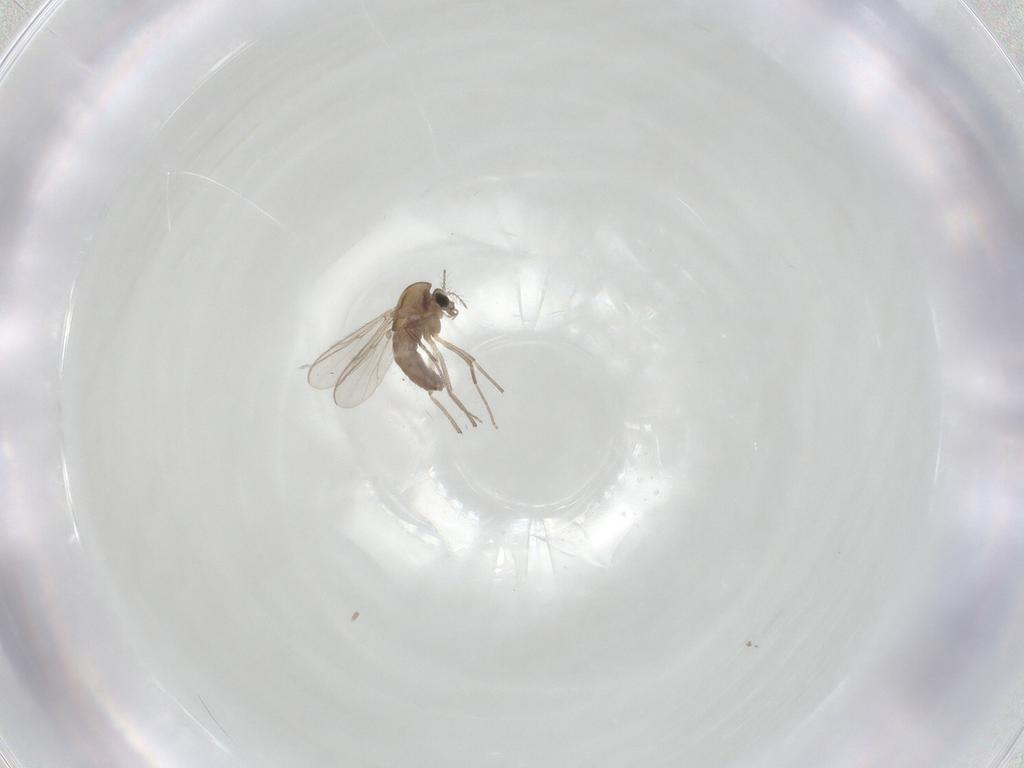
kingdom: Animalia
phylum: Arthropoda
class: Insecta
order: Diptera
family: Chironomidae
